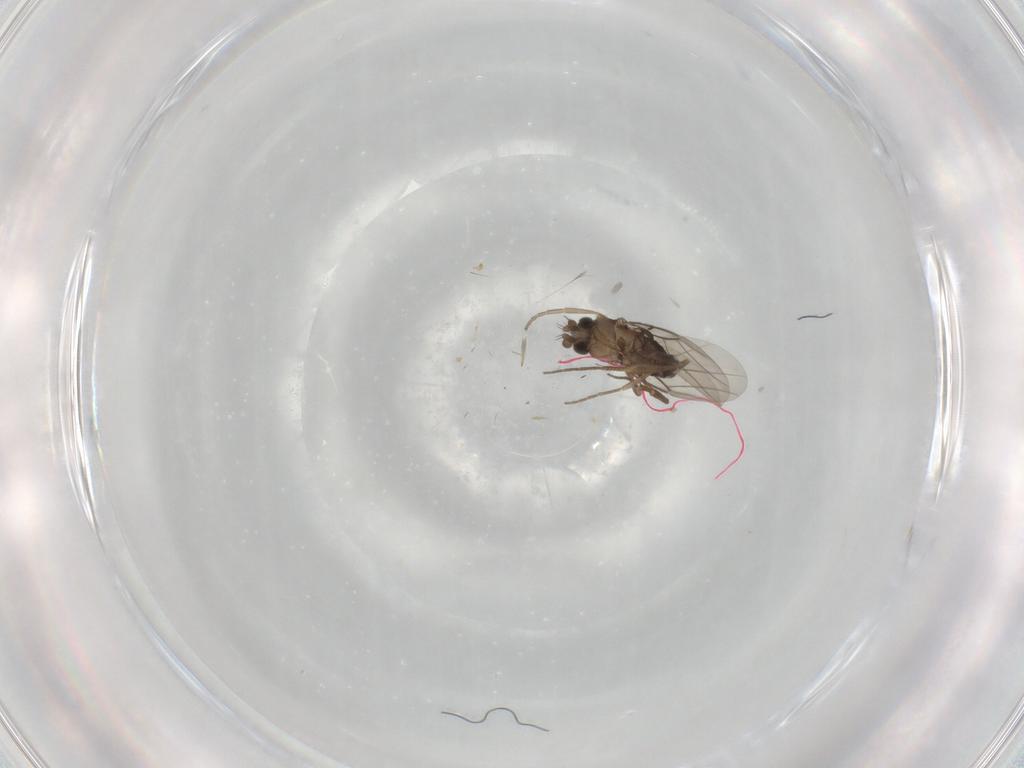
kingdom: Animalia
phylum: Arthropoda
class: Insecta
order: Diptera
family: Phoridae
